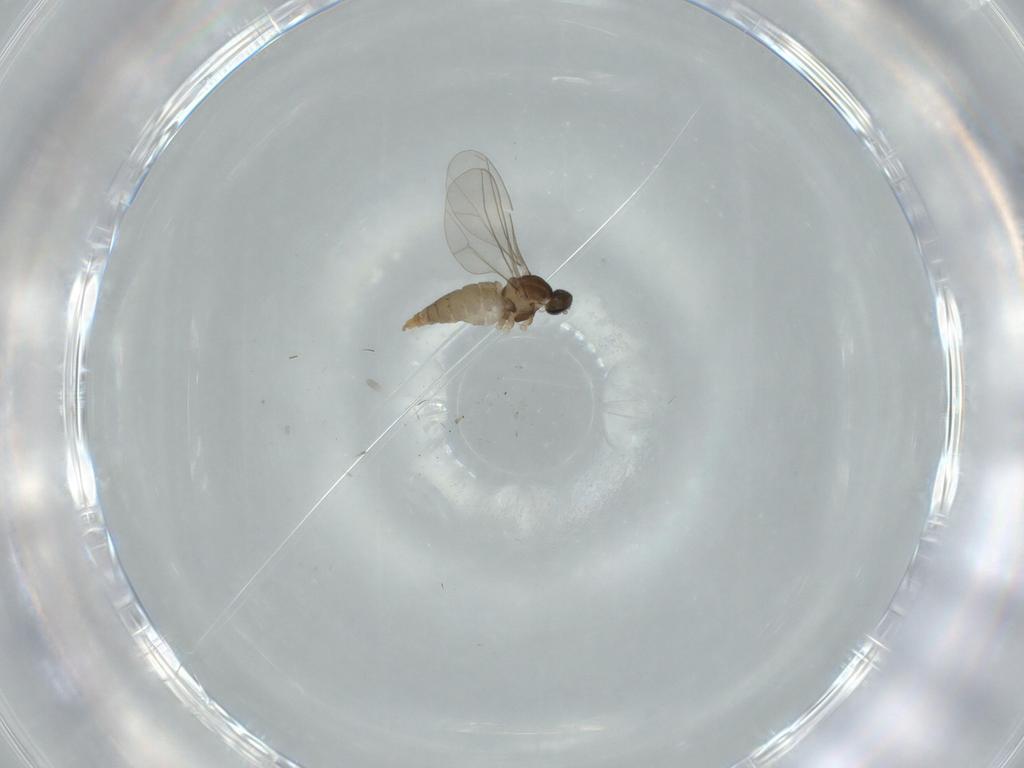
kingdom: Animalia
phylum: Arthropoda
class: Insecta
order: Diptera
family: Cecidomyiidae
